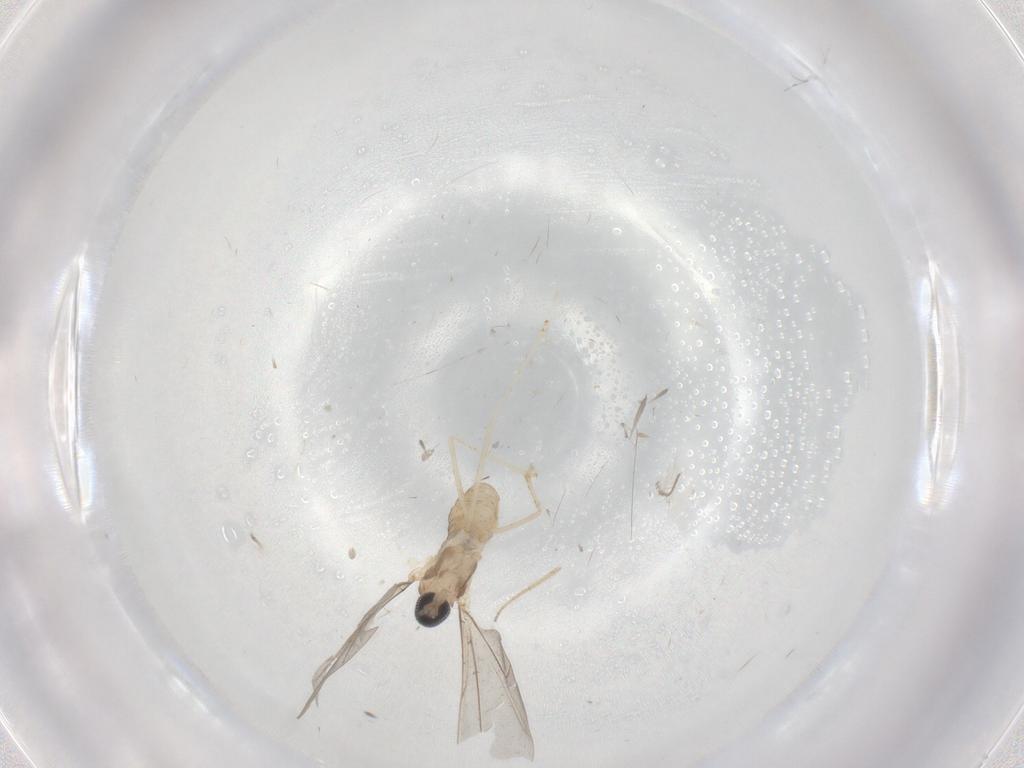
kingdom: Animalia
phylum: Arthropoda
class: Insecta
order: Diptera
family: Cecidomyiidae
